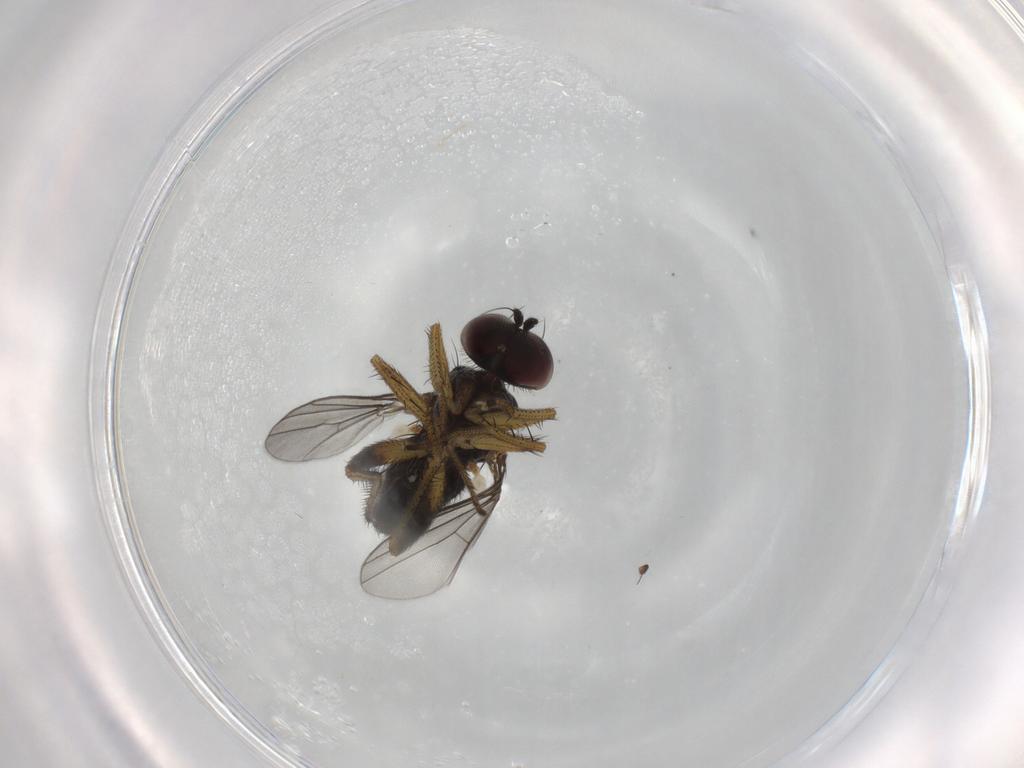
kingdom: Animalia
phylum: Arthropoda
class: Insecta
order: Diptera
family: Dolichopodidae
